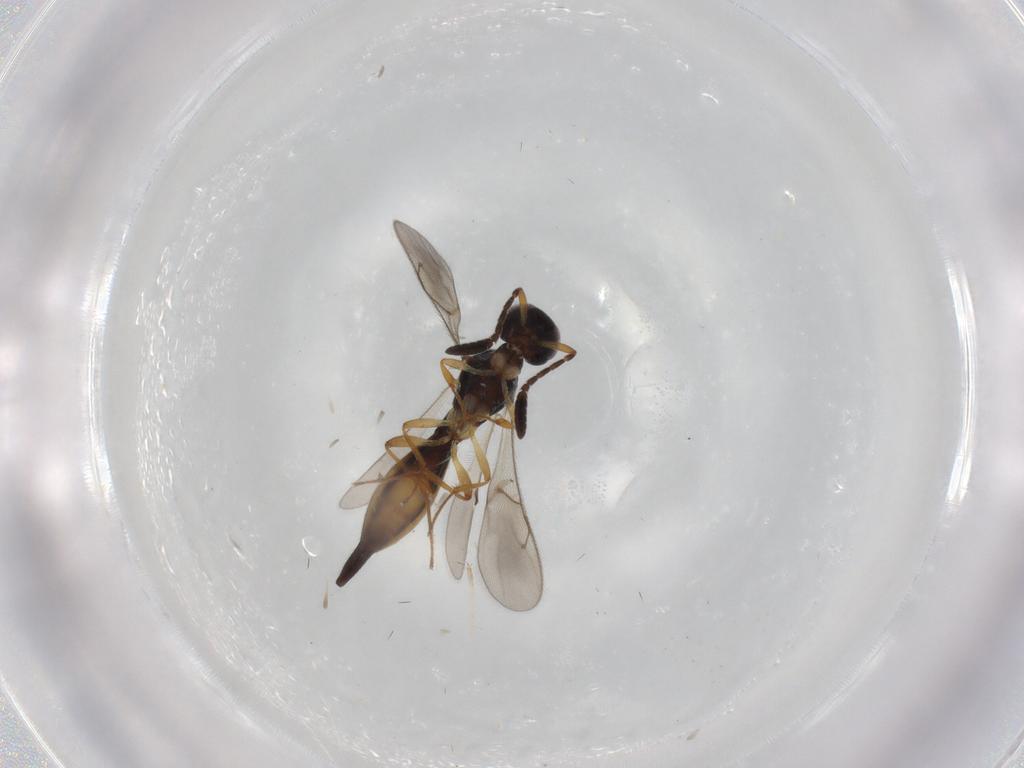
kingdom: Animalia
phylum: Arthropoda
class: Insecta
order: Diptera
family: Cecidomyiidae
